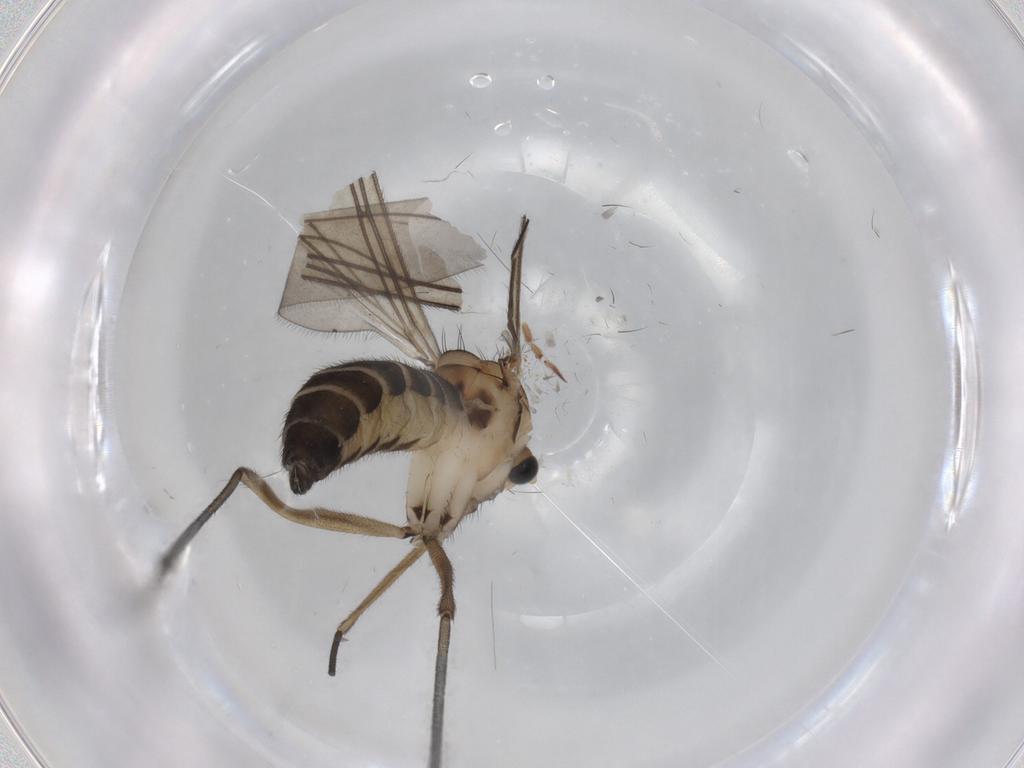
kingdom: Animalia
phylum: Arthropoda
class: Insecta
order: Diptera
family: Sciaridae
